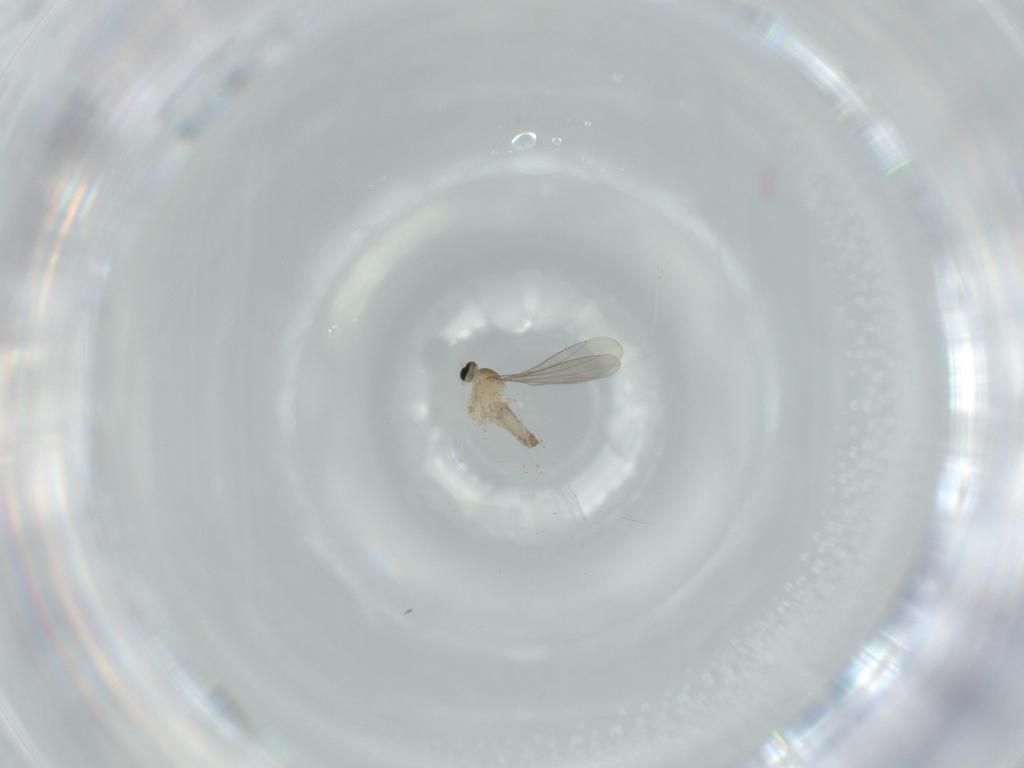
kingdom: Animalia
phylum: Arthropoda
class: Insecta
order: Diptera
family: Cecidomyiidae
